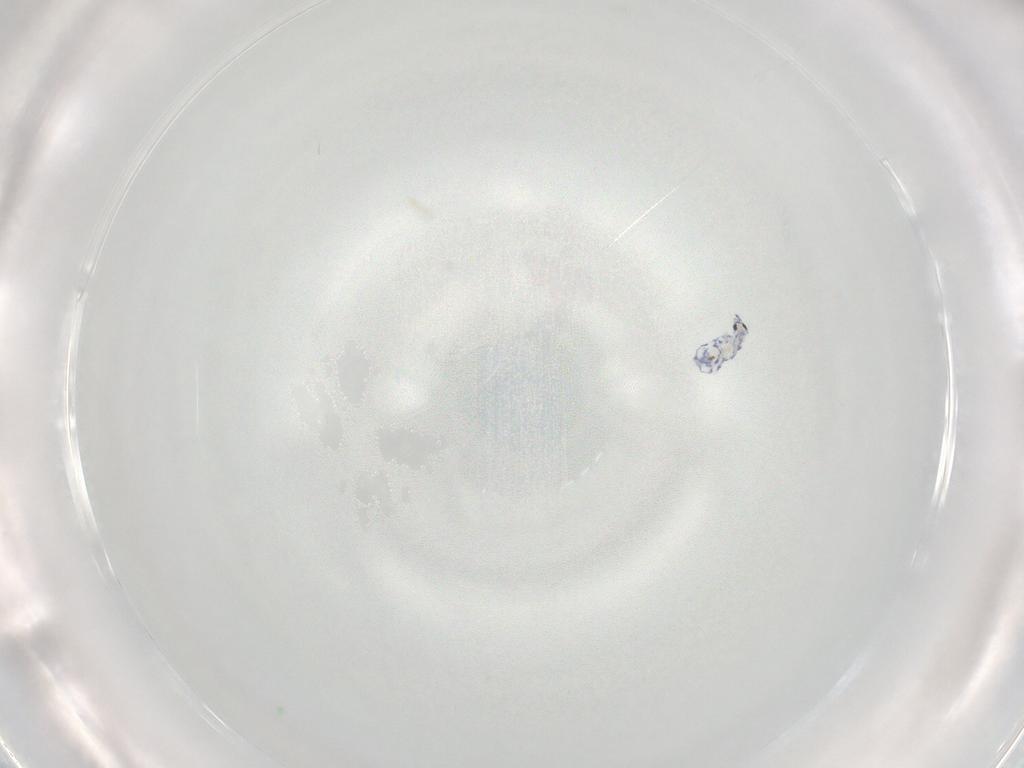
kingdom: Animalia
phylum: Arthropoda
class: Collembola
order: Entomobryomorpha
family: Entomobryidae
